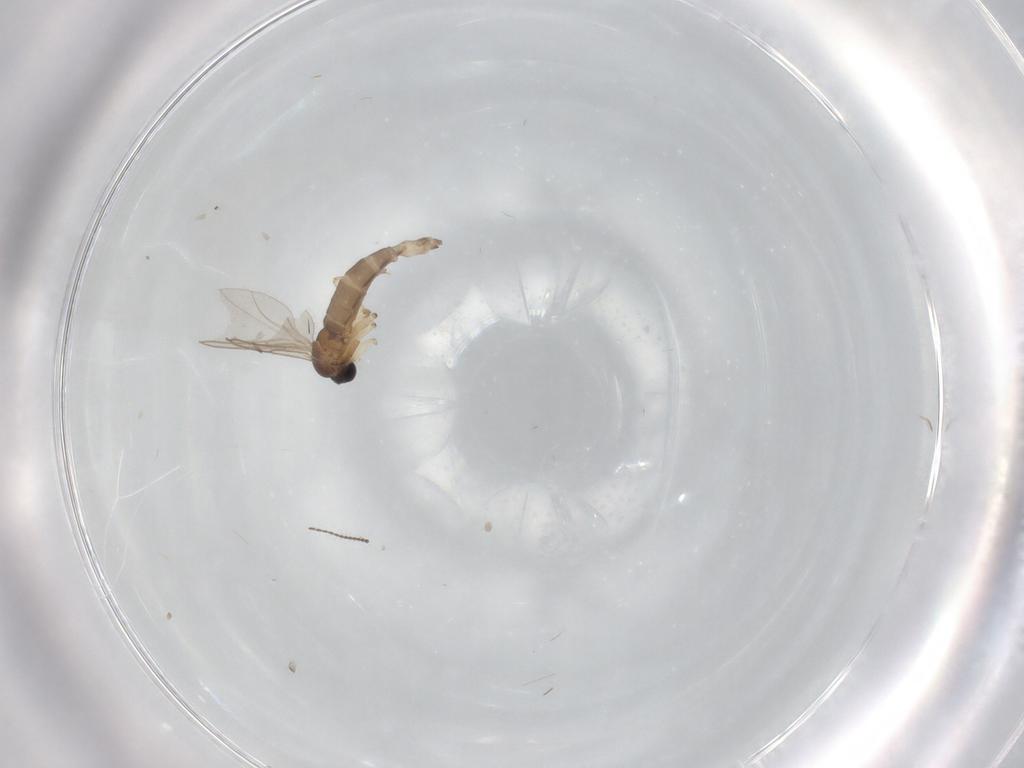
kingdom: Animalia
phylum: Arthropoda
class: Insecta
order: Diptera
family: Sciaridae
